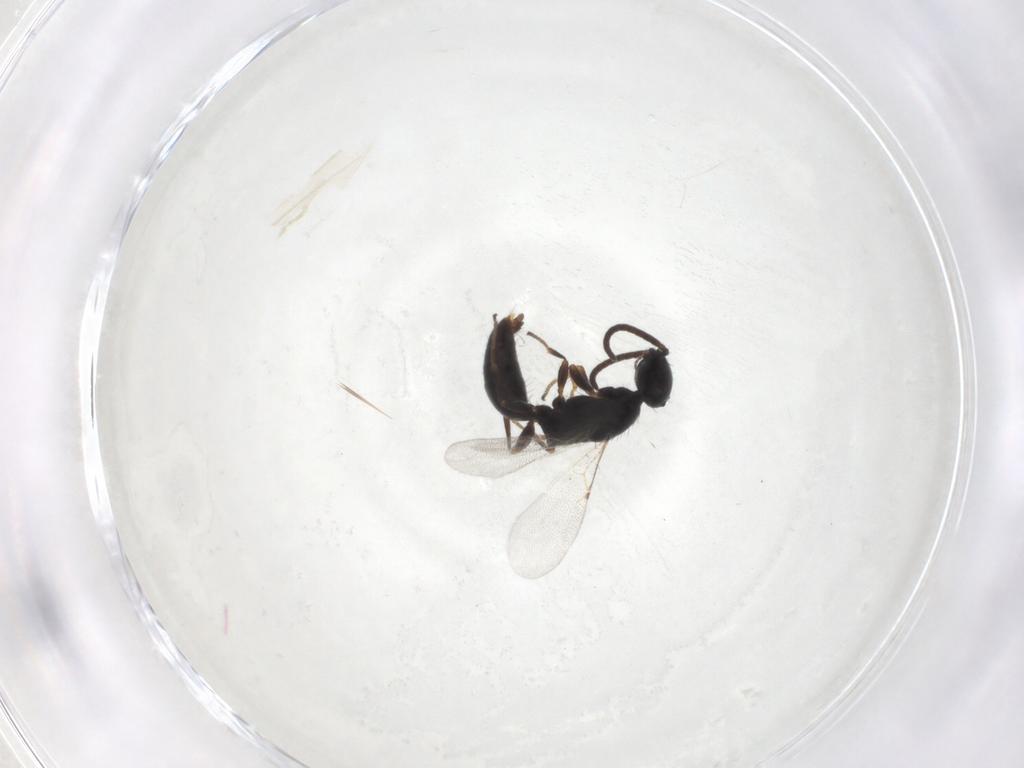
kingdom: Animalia
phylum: Arthropoda
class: Insecta
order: Hymenoptera
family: Bethylidae
